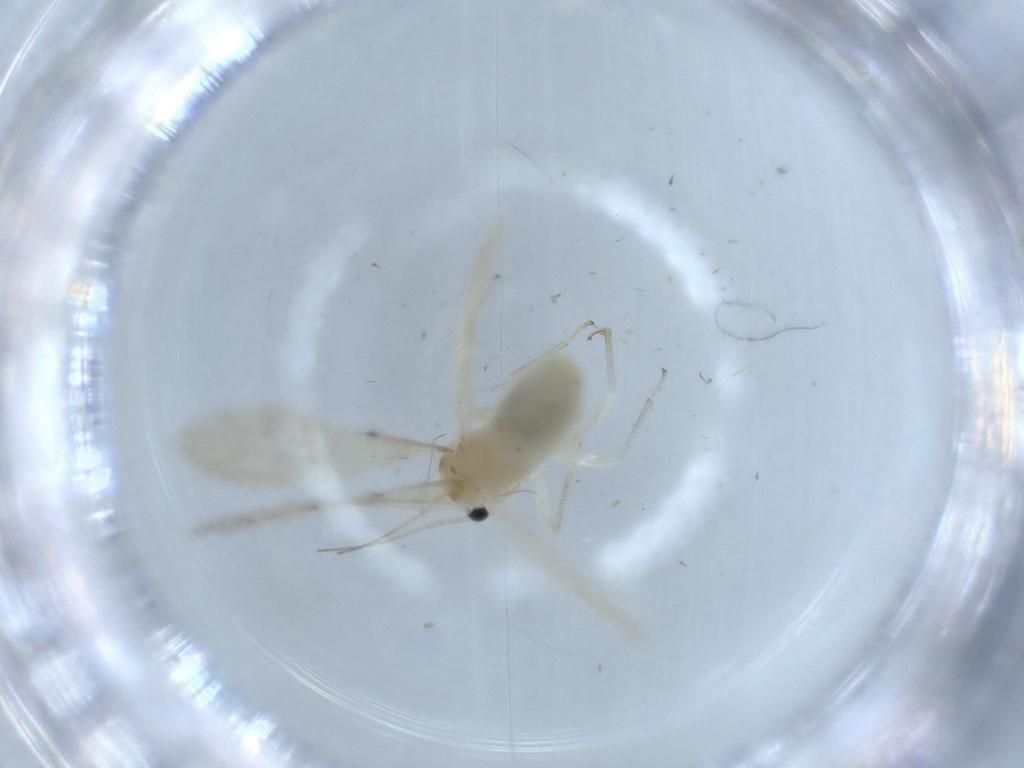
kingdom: Animalia
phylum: Arthropoda
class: Insecta
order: Psocodea
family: Caeciliusidae
